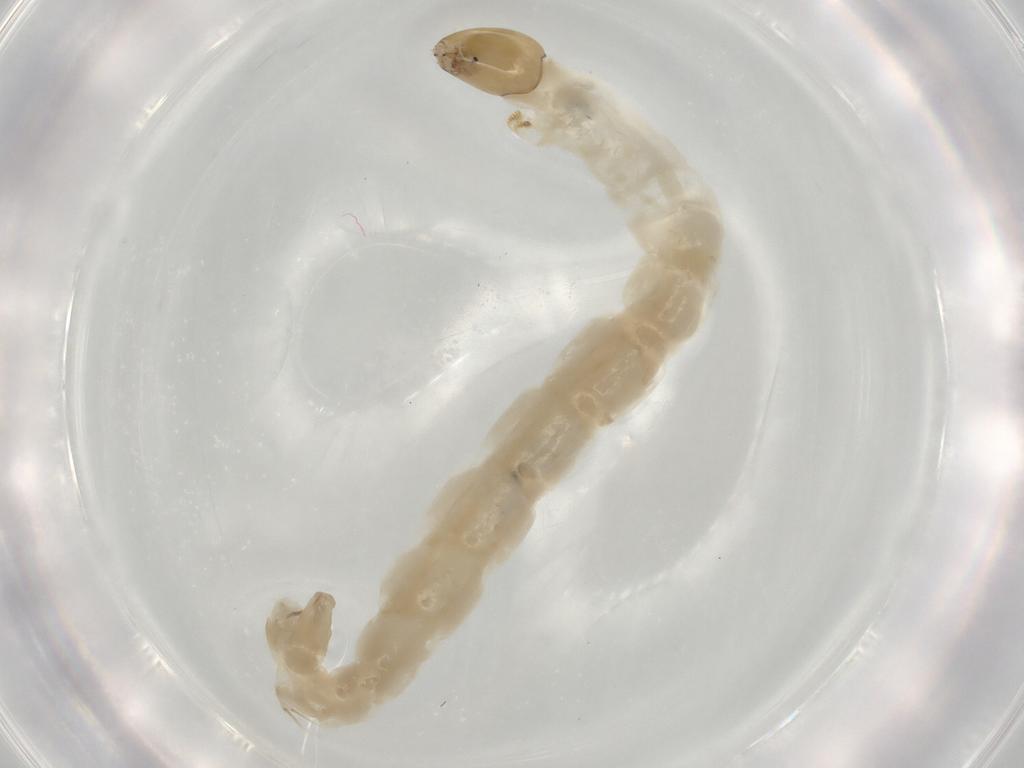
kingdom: Animalia
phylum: Arthropoda
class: Insecta
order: Diptera
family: Chironomidae
